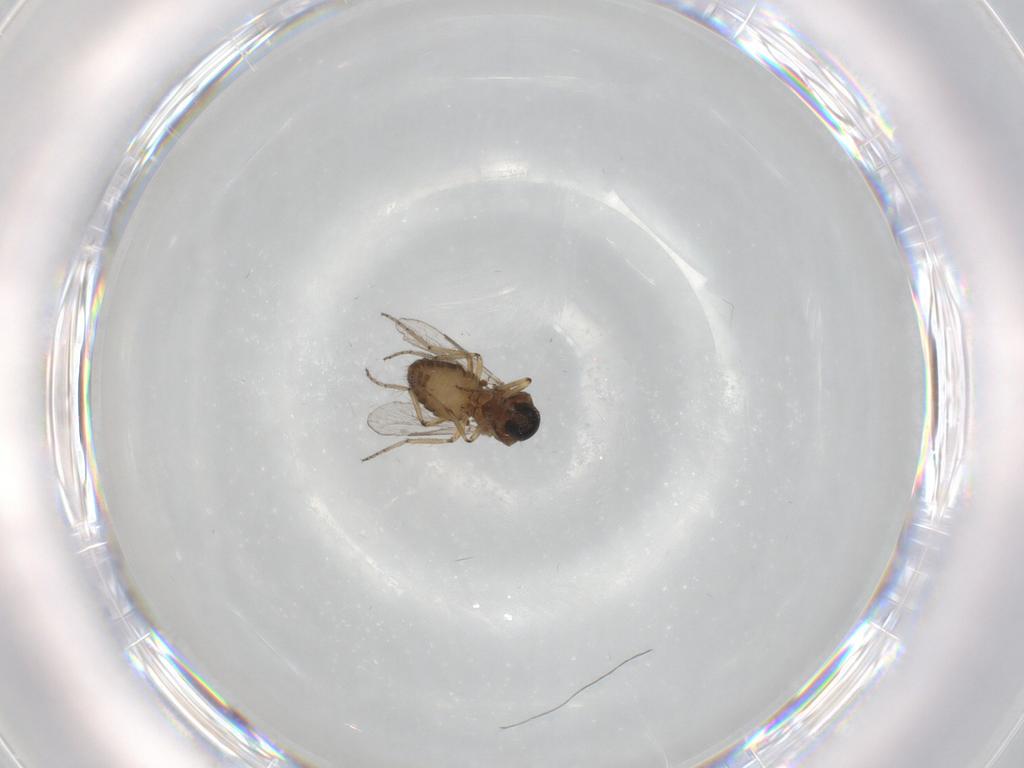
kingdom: Animalia
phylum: Arthropoda
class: Insecta
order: Diptera
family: Ceratopogonidae
